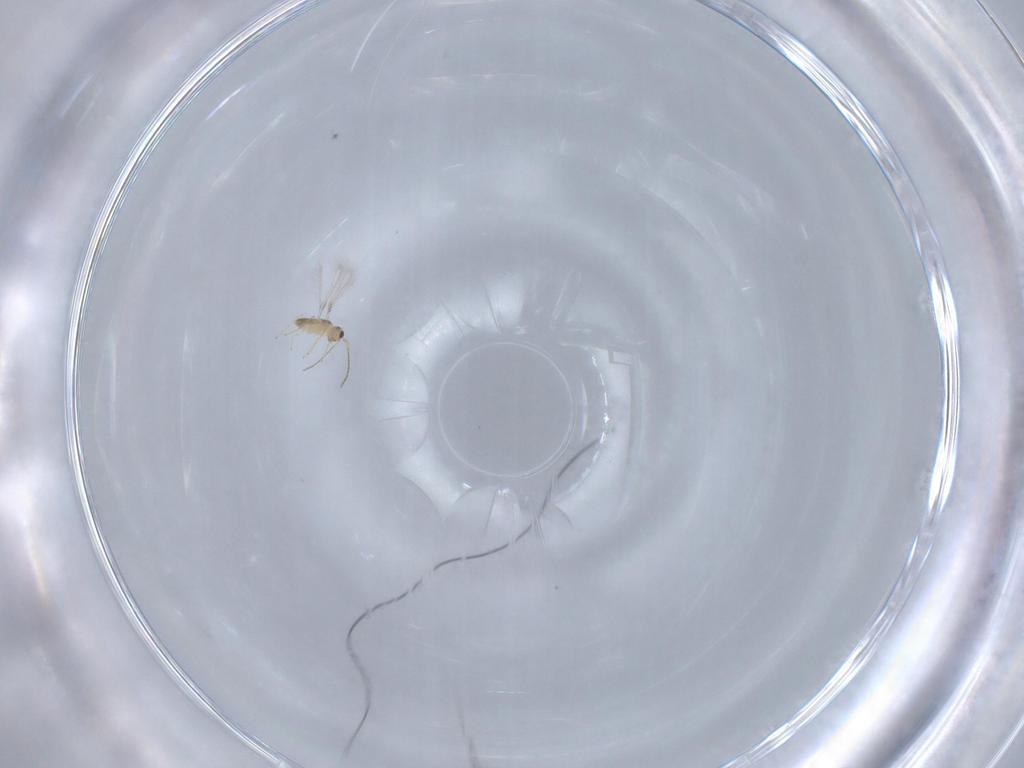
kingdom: Animalia
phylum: Arthropoda
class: Insecta
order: Hymenoptera
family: Mymaridae
